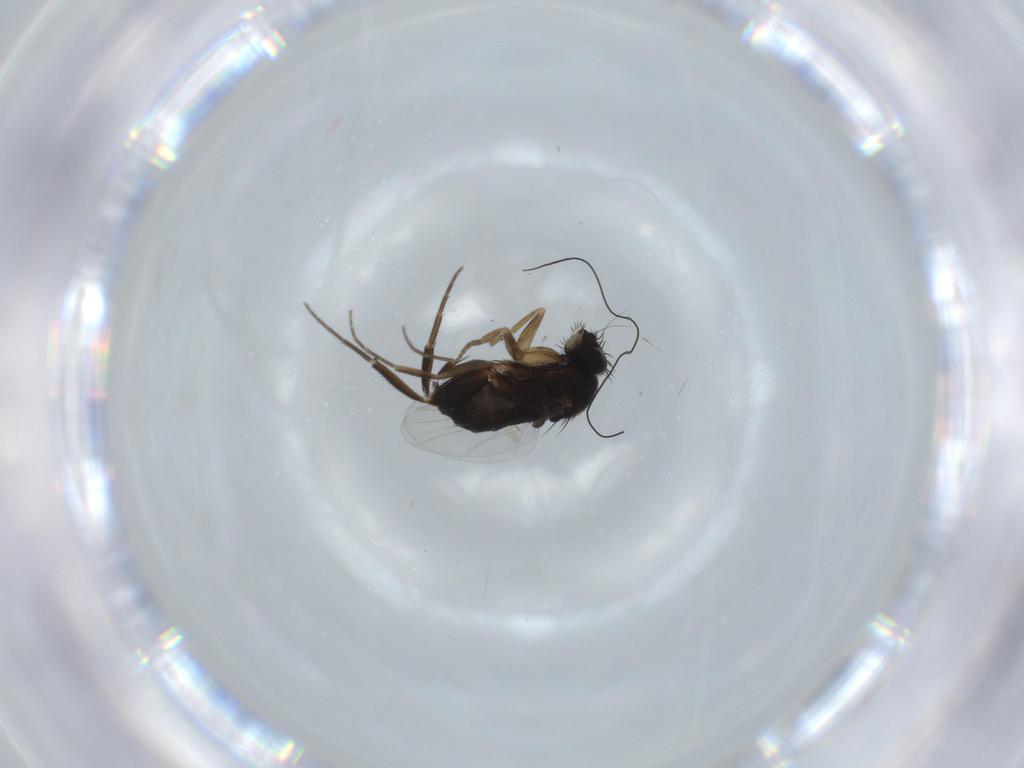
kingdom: Animalia
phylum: Arthropoda
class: Insecta
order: Diptera
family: Phoridae
